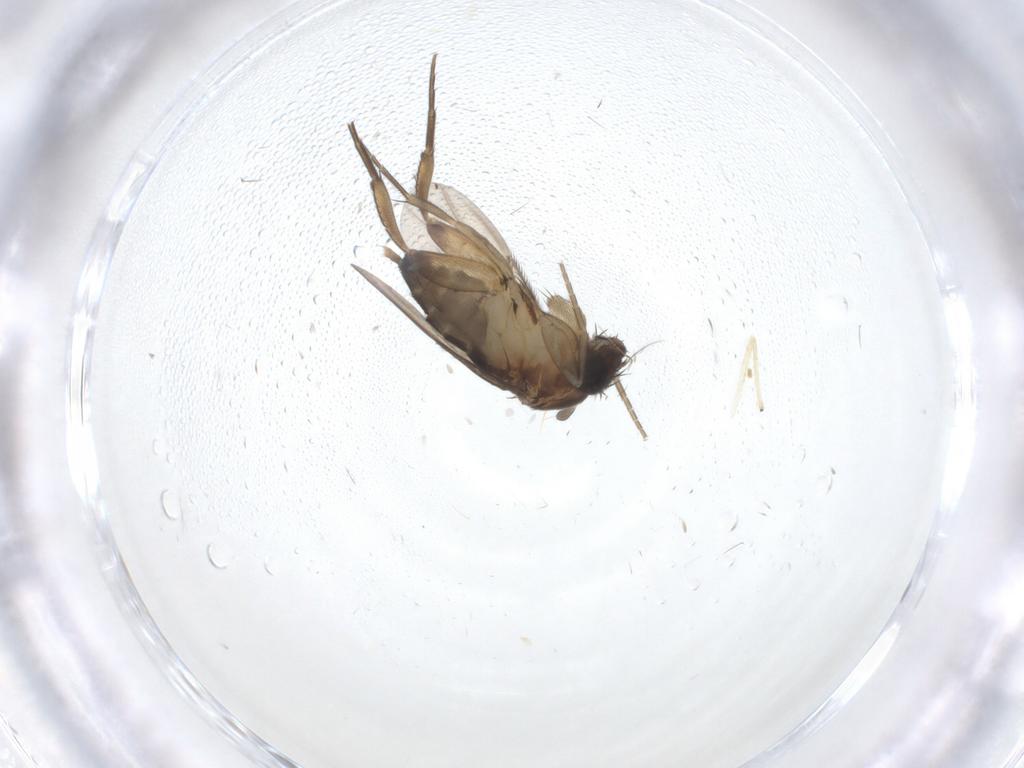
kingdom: Animalia
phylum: Arthropoda
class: Insecta
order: Diptera
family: Phoridae
